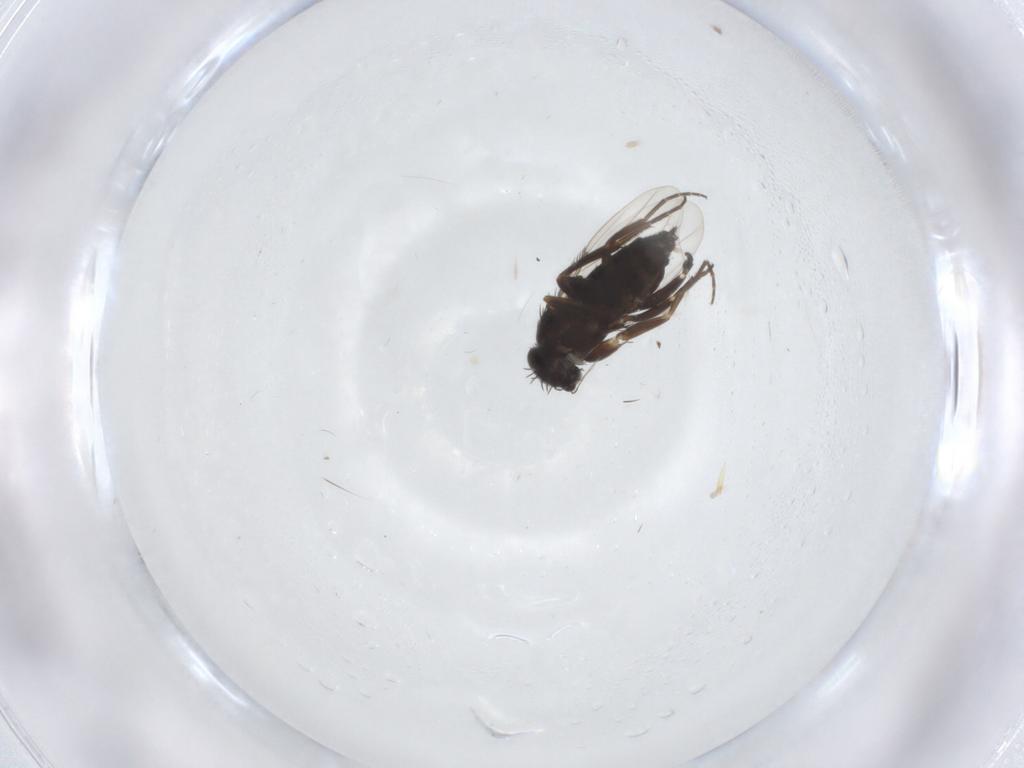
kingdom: Animalia
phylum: Arthropoda
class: Insecta
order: Diptera
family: Phoridae
